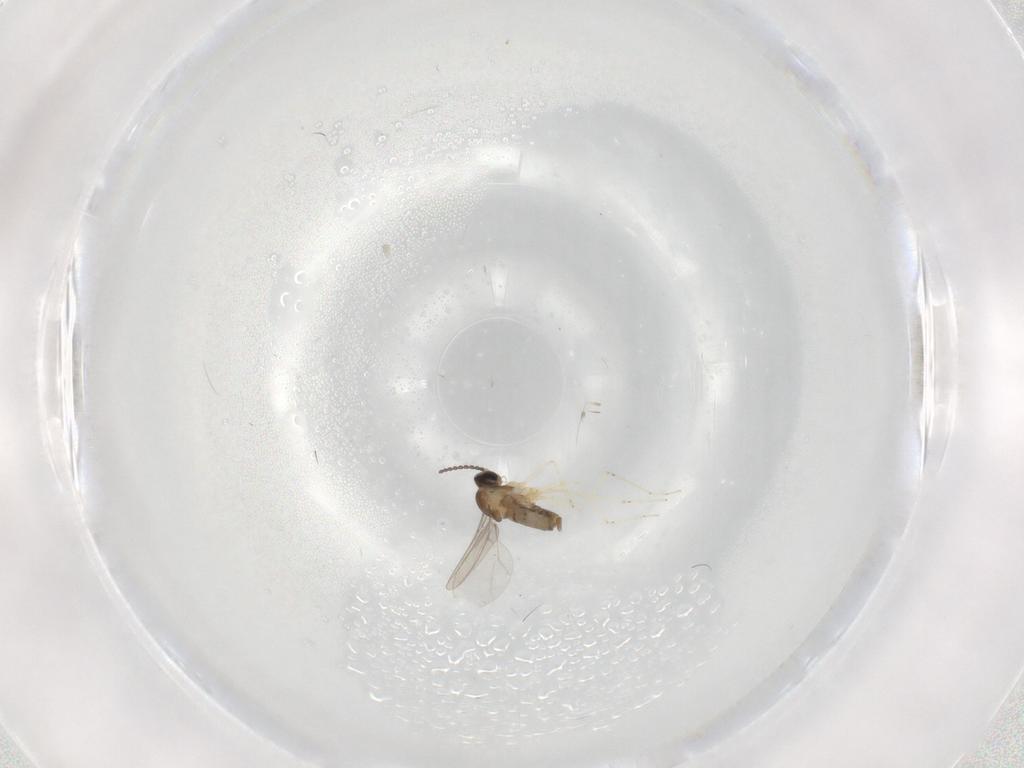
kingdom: Animalia
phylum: Arthropoda
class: Insecta
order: Diptera
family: Cecidomyiidae
